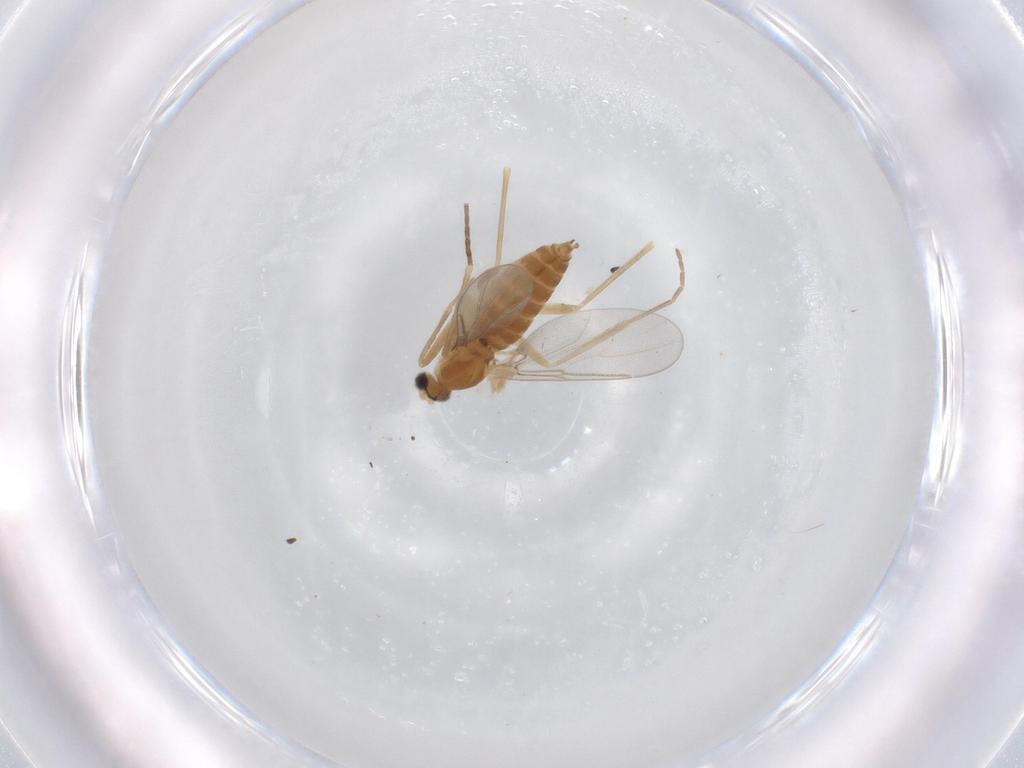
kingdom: Animalia
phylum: Arthropoda
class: Insecta
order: Diptera
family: Cecidomyiidae
